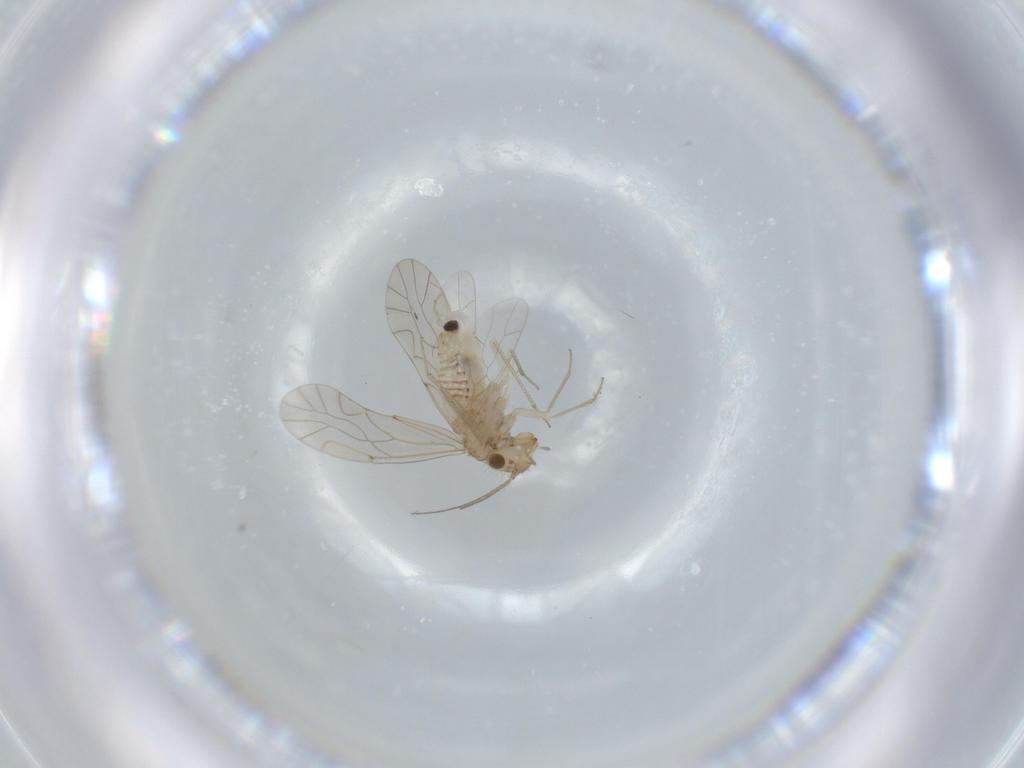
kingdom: Animalia
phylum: Arthropoda
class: Insecta
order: Psocodea
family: Lachesillidae
